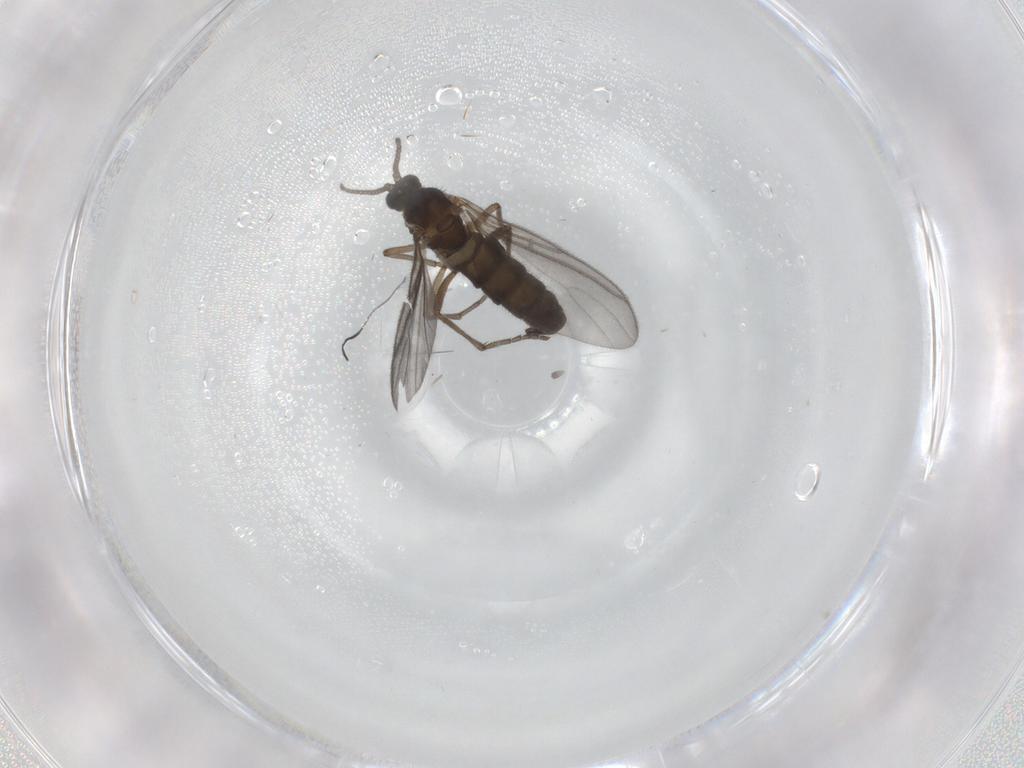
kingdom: Animalia
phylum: Arthropoda
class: Insecta
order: Diptera
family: Sciaridae
